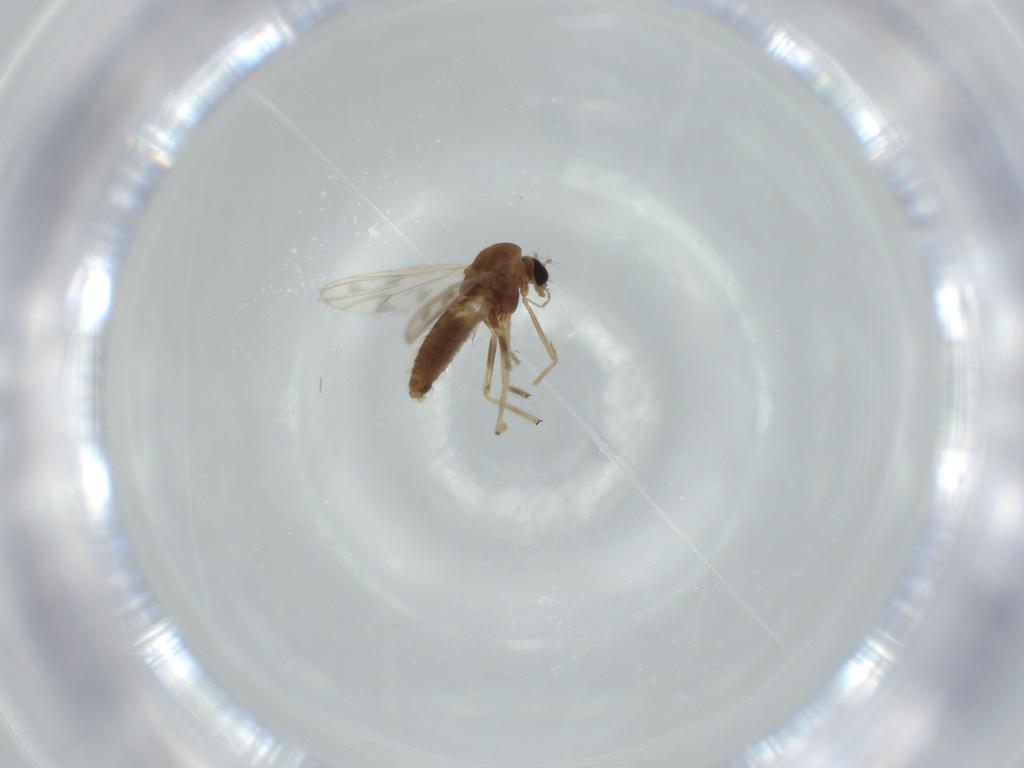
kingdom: Animalia
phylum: Arthropoda
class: Insecta
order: Diptera
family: Chironomidae
